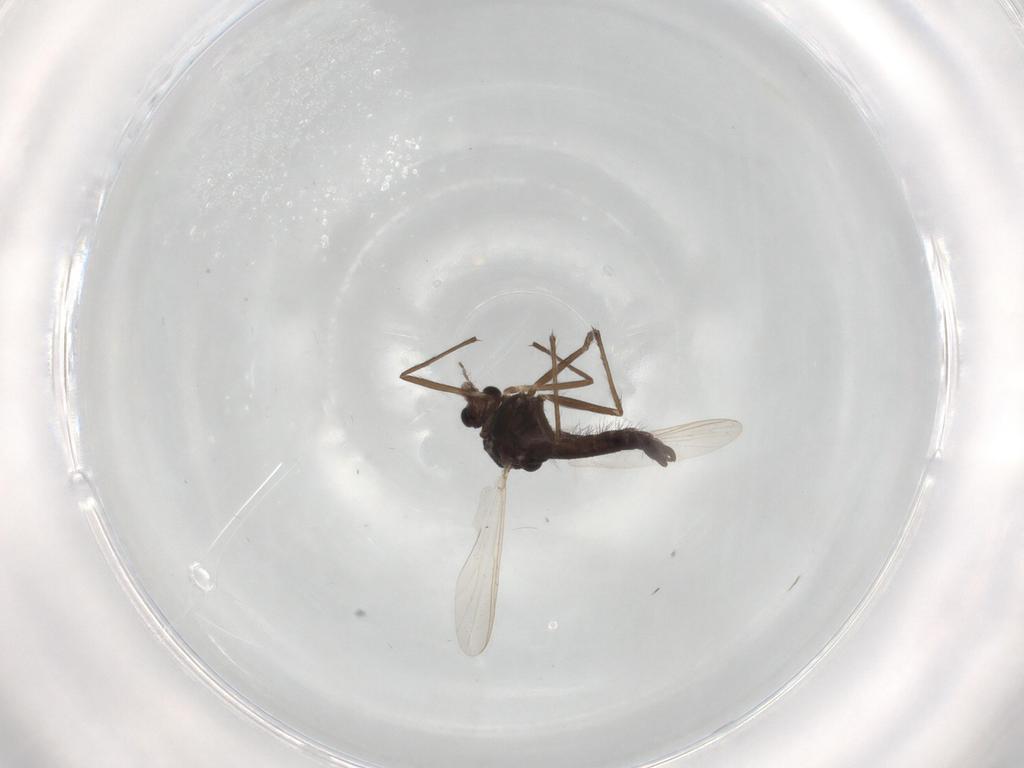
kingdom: Animalia
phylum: Arthropoda
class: Insecta
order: Diptera
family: Chironomidae
